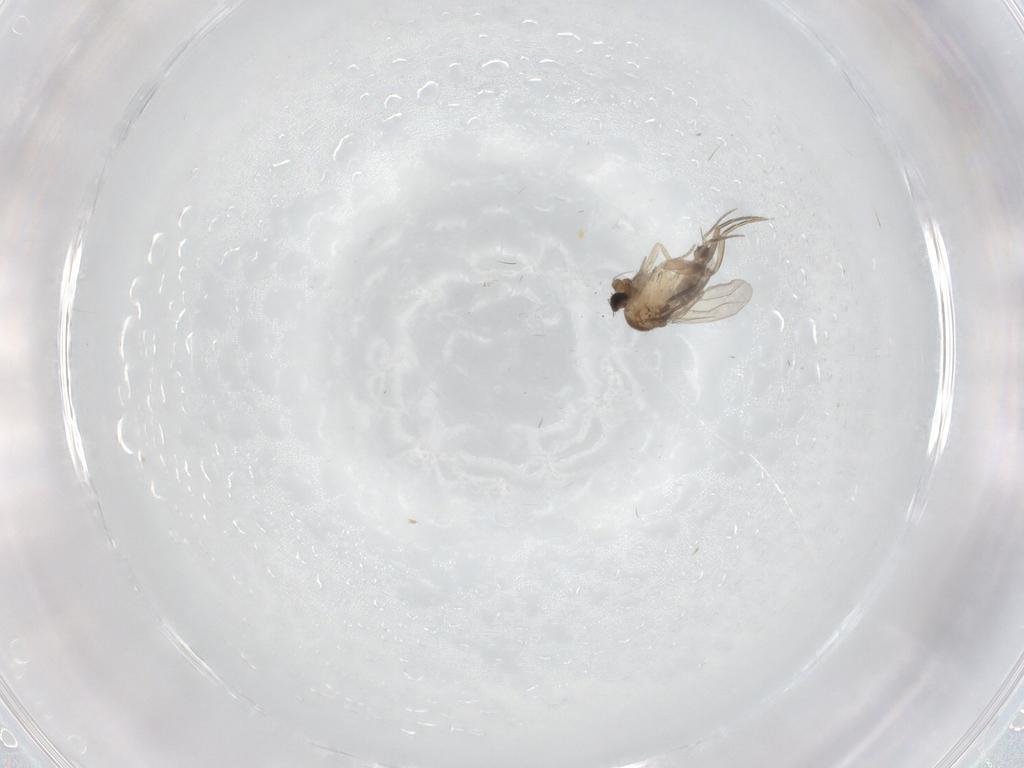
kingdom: Animalia
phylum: Arthropoda
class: Insecta
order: Diptera
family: Phoridae
